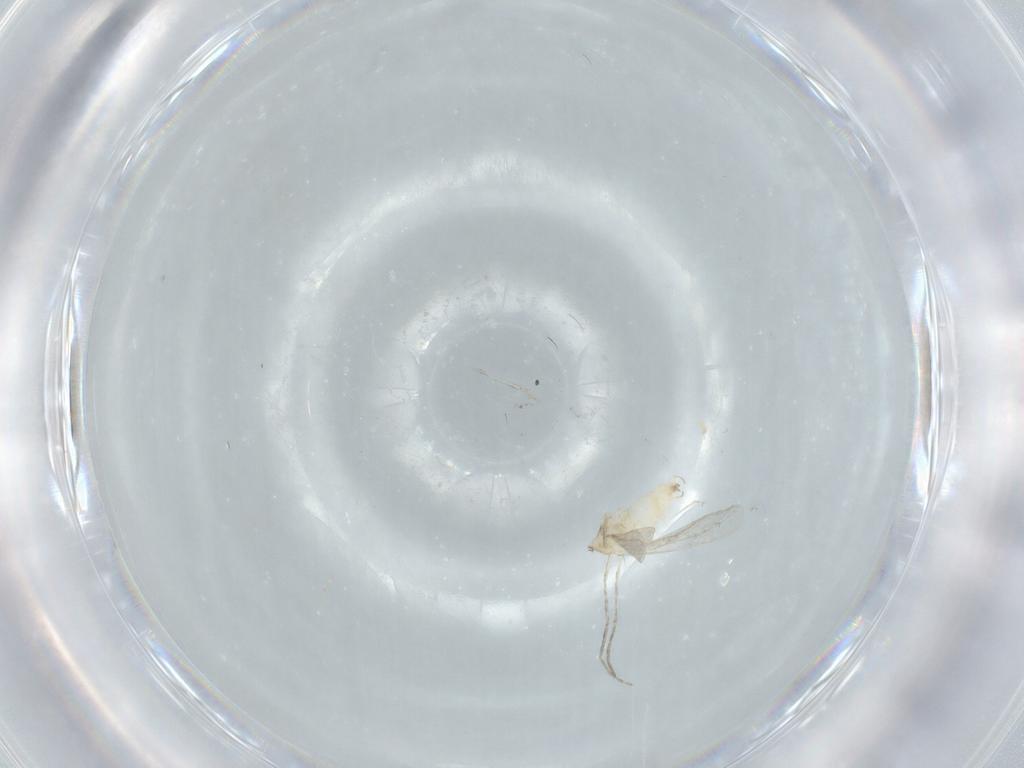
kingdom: Animalia
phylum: Arthropoda
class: Insecta
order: Diptera
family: Cecidomyiidae
